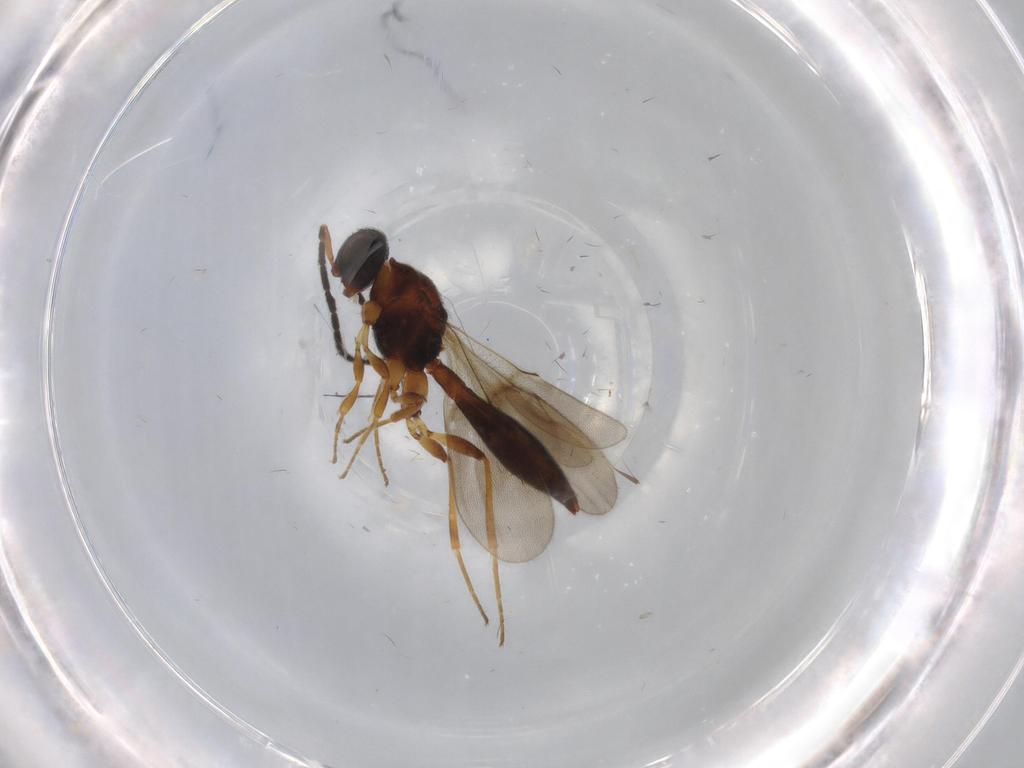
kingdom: Animalia
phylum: Arthropoda
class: Insecta
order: Hymenoptera
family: Scelionidae
